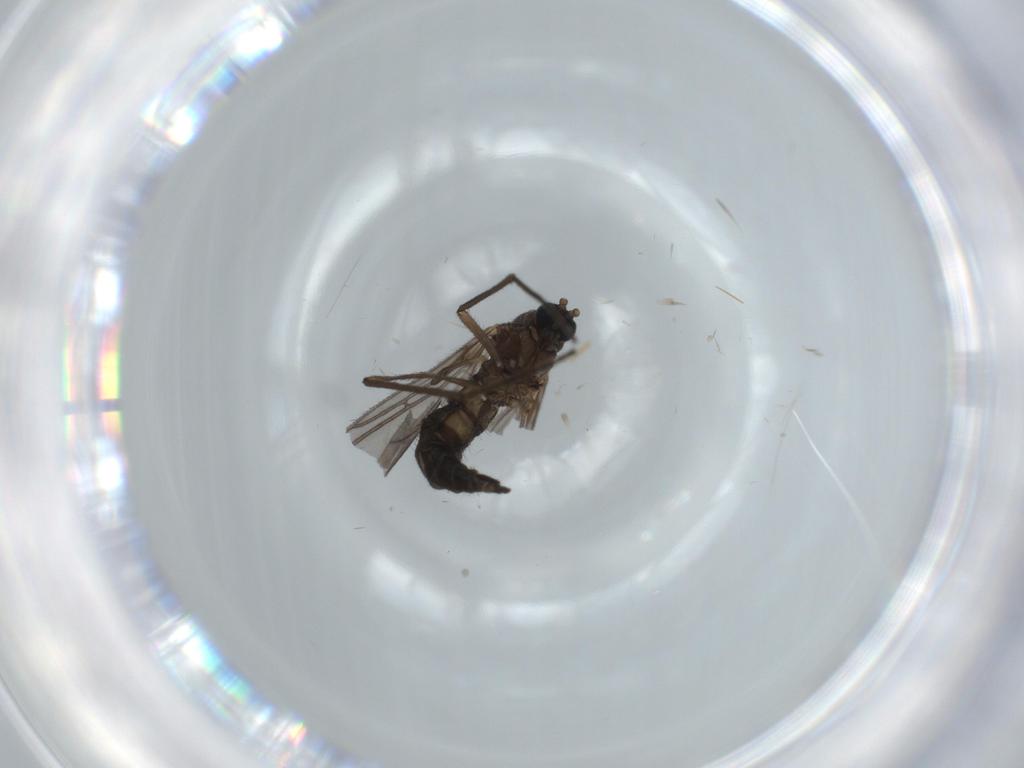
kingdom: Animalia
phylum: Arthropoda
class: Insecta
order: Diptera
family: Sciaridae
